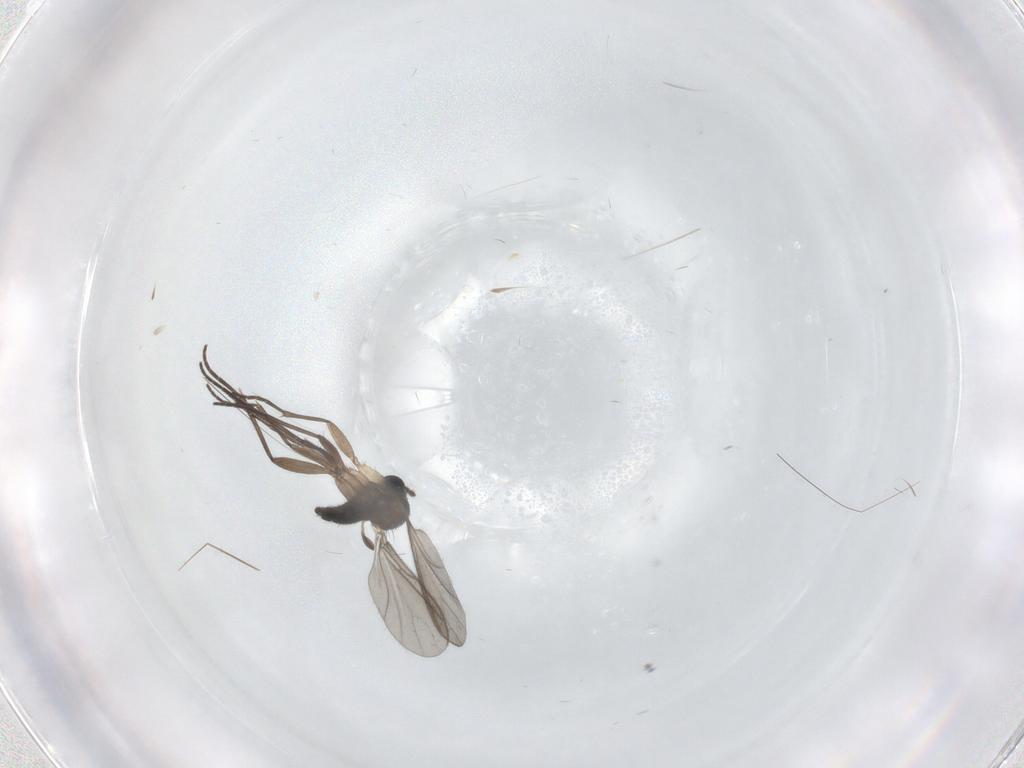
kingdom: Animalia
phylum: Arthropoda
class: Insecta
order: Diptera
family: Sciaridae
